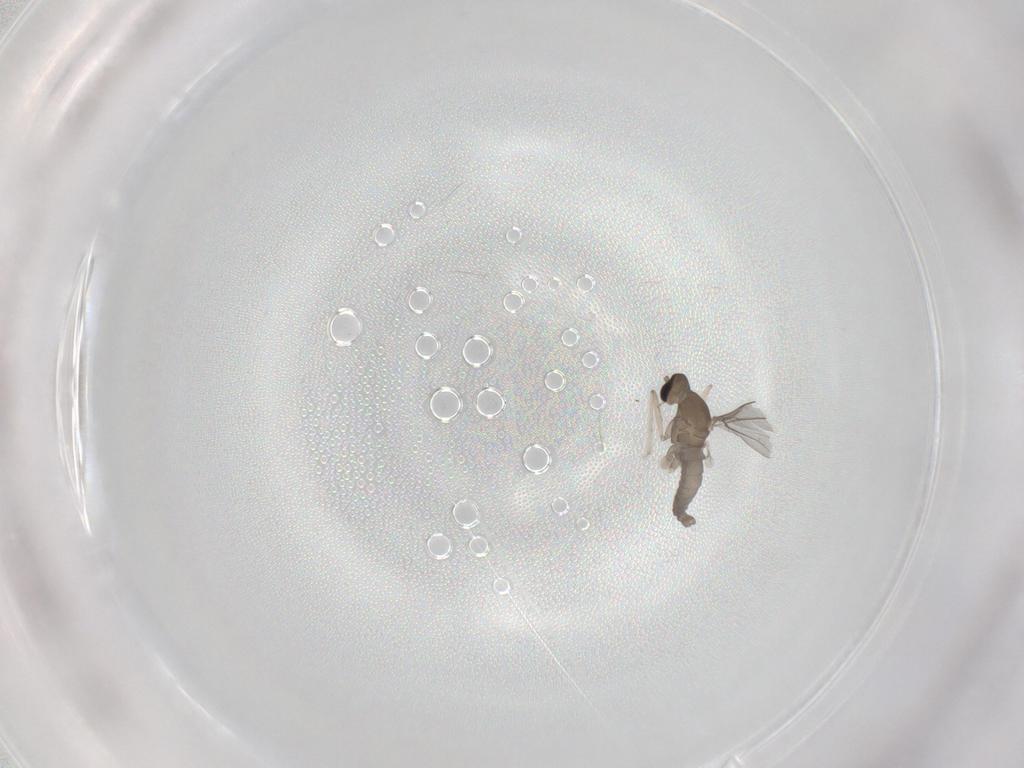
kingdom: Animalia
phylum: Arthropoda
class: Insecta
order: Diptera
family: Cecidomyiidae
